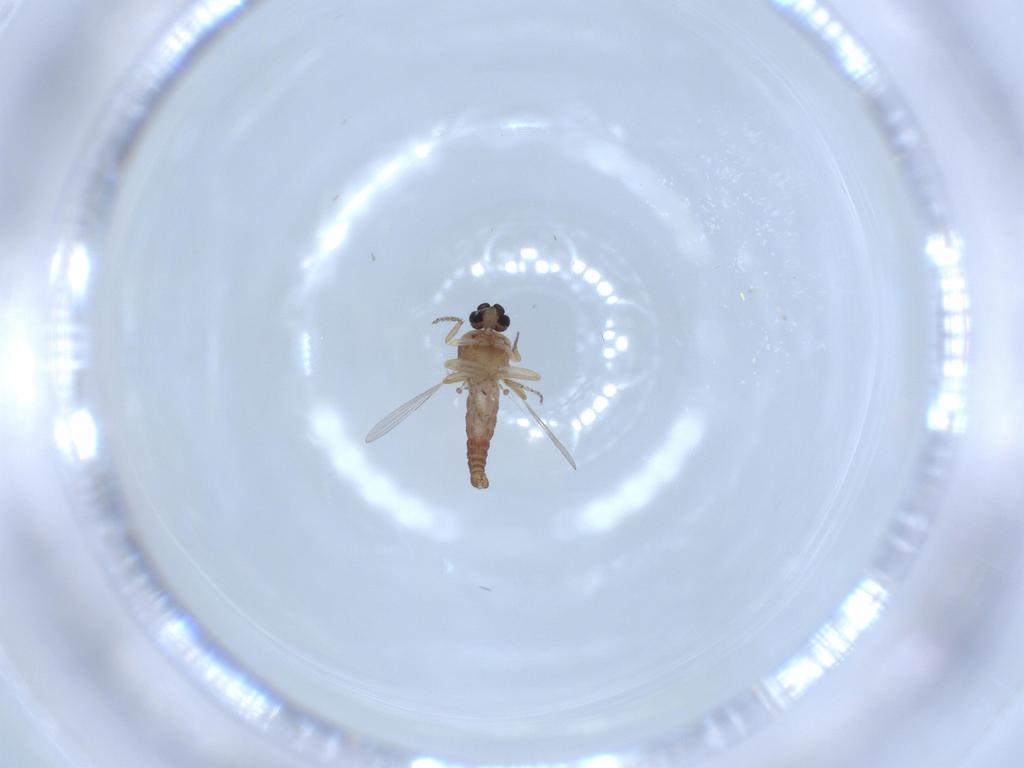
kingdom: Animalia
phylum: Arthropoda
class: Insecta
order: Diptera
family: Ceratopogonidae
